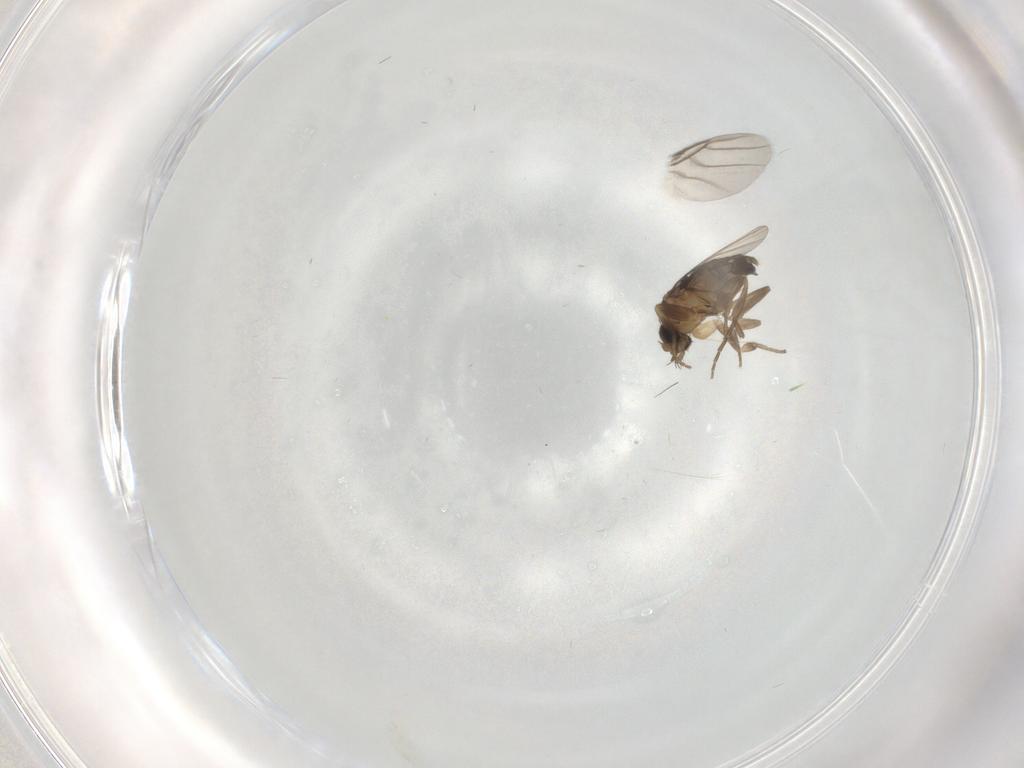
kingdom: Animalia
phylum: Arthropoda
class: Insecta
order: Diptera
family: Phoridae
